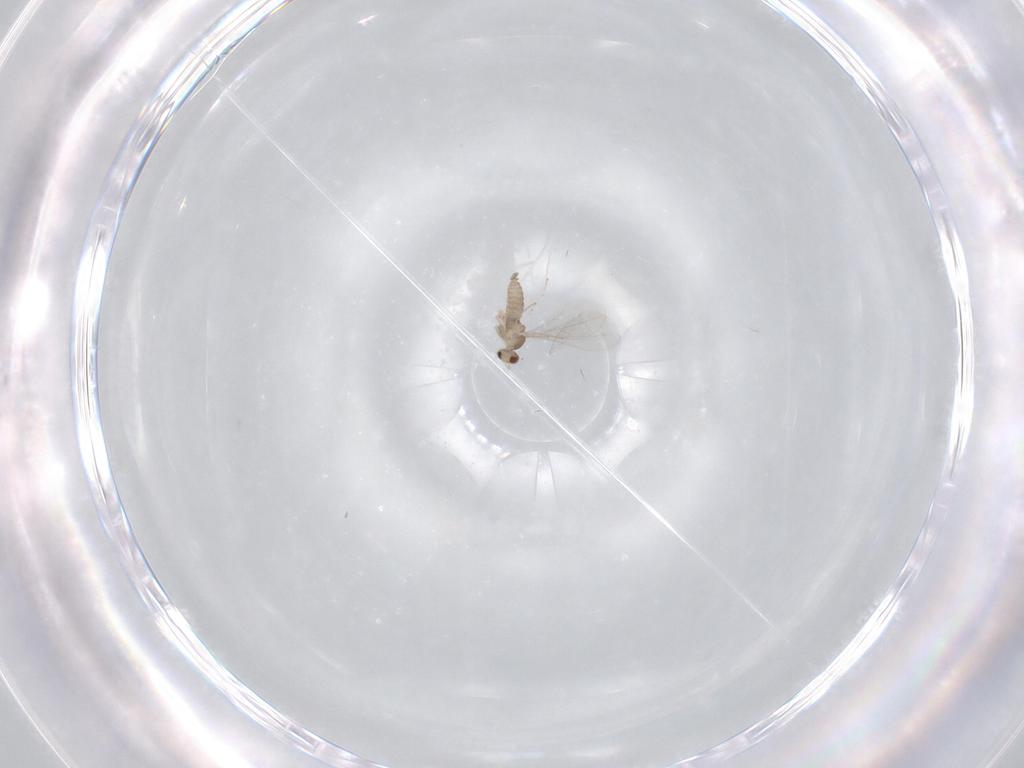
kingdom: Animalia
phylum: Arthropoda
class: Insecta
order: Diptera
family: Cecidomyiidae
